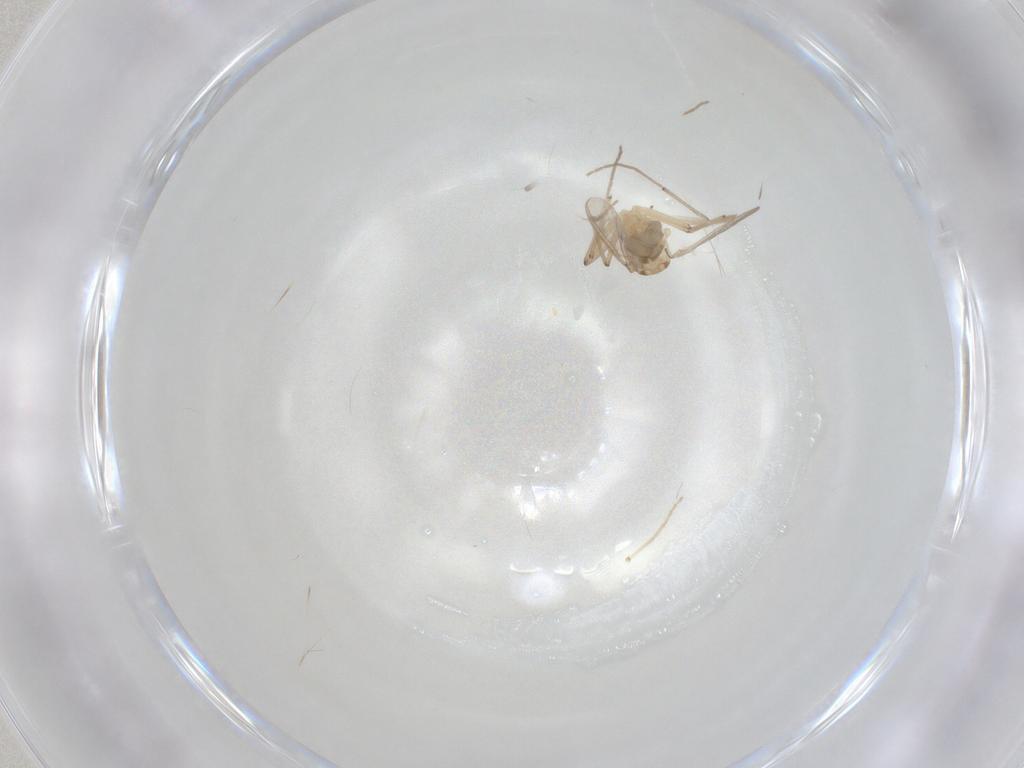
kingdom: Animalia
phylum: Arthropoda
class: Insecta
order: Diptera
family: Chironomidae
